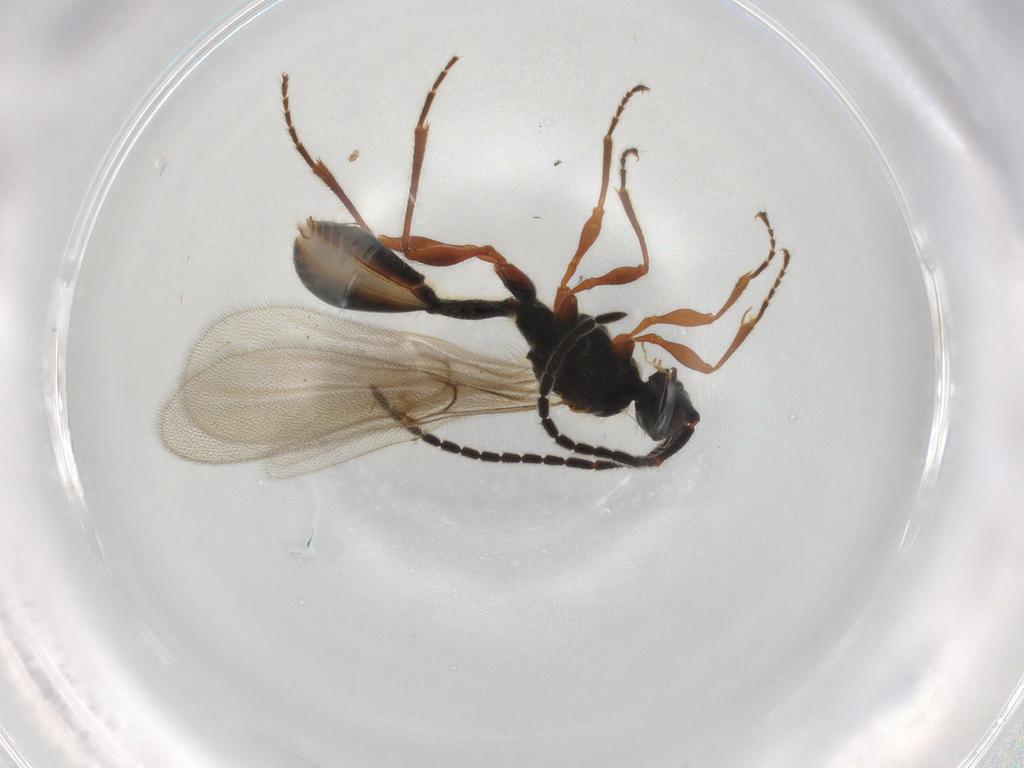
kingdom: Animalia
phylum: Arthropoda
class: Insecta
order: Hymenoptera
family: Diapriidae
